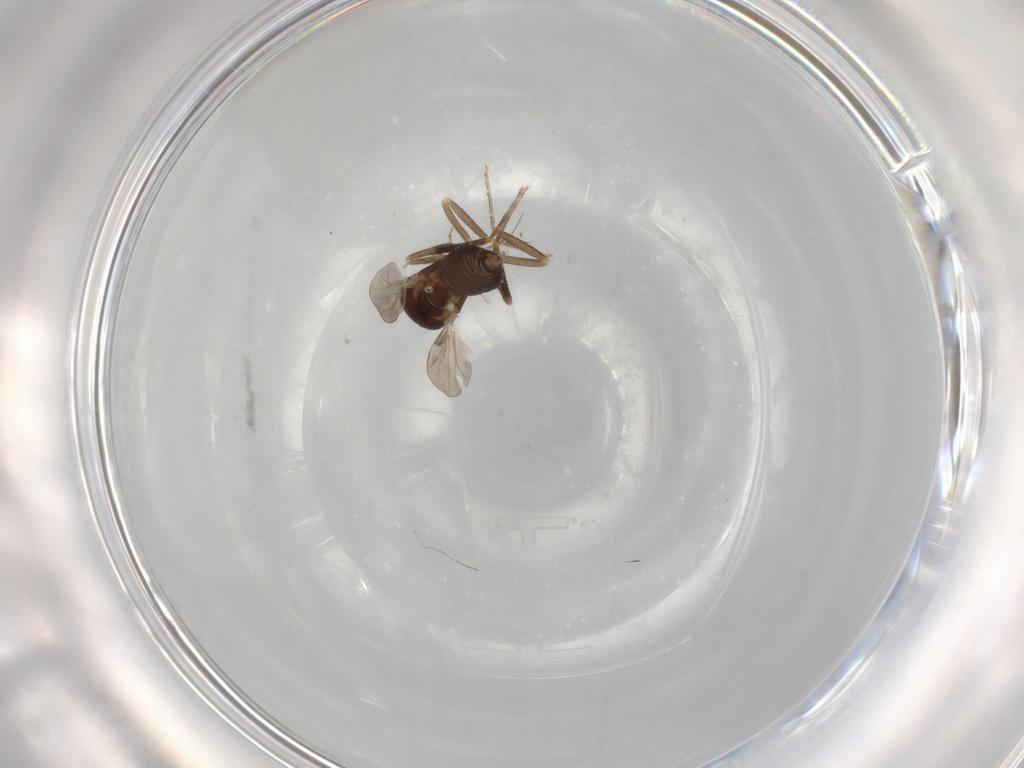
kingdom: Animalia
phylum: Arthropoda
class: Insecta
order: Diptera
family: Ceratopogonidae
